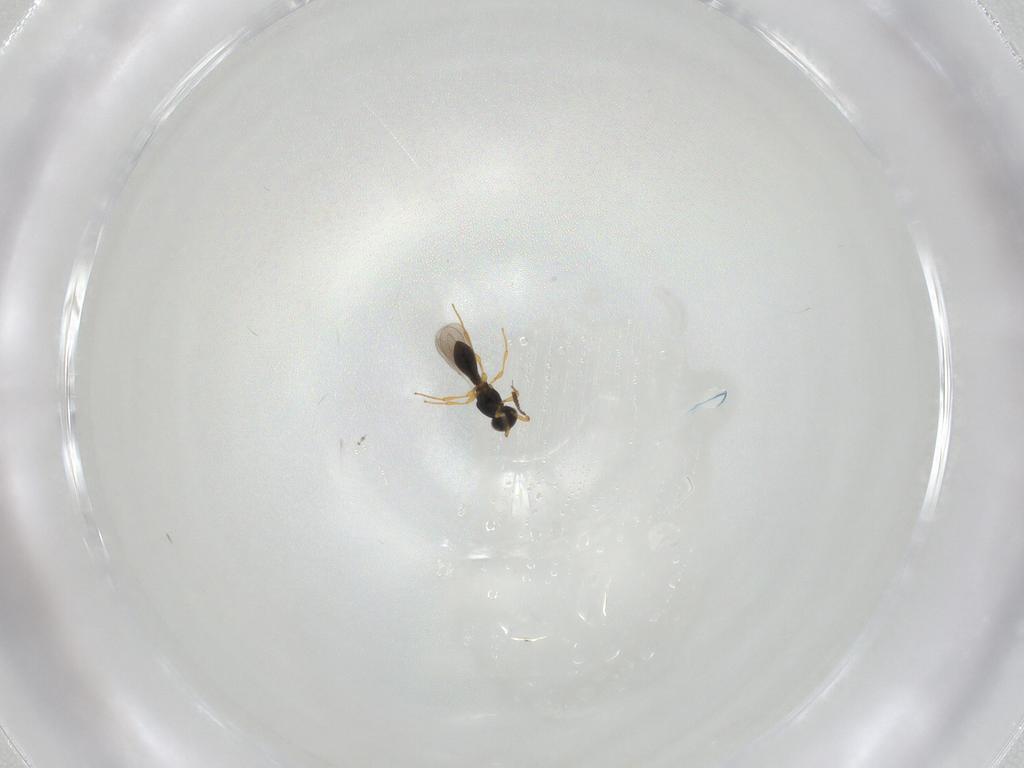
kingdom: Animalia
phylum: Arthropoda
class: Insecta
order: Hymenoptera
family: Platygastridae
